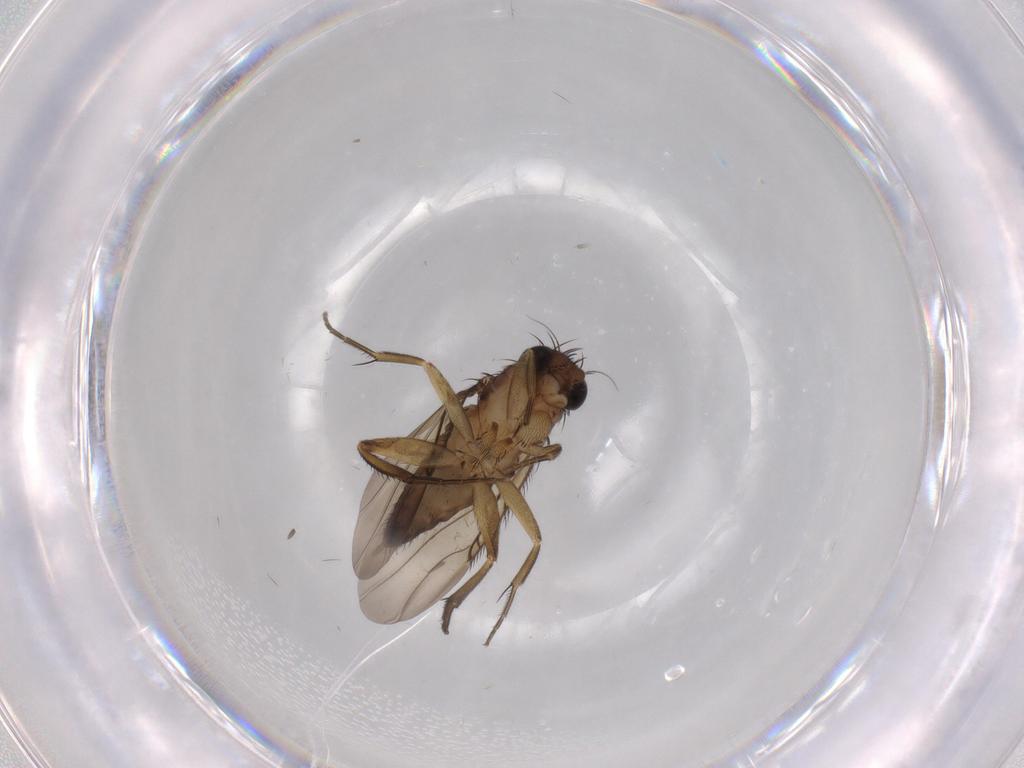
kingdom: Animalia
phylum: Arthropoda
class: Insecta
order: Diptera
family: Phoridae
